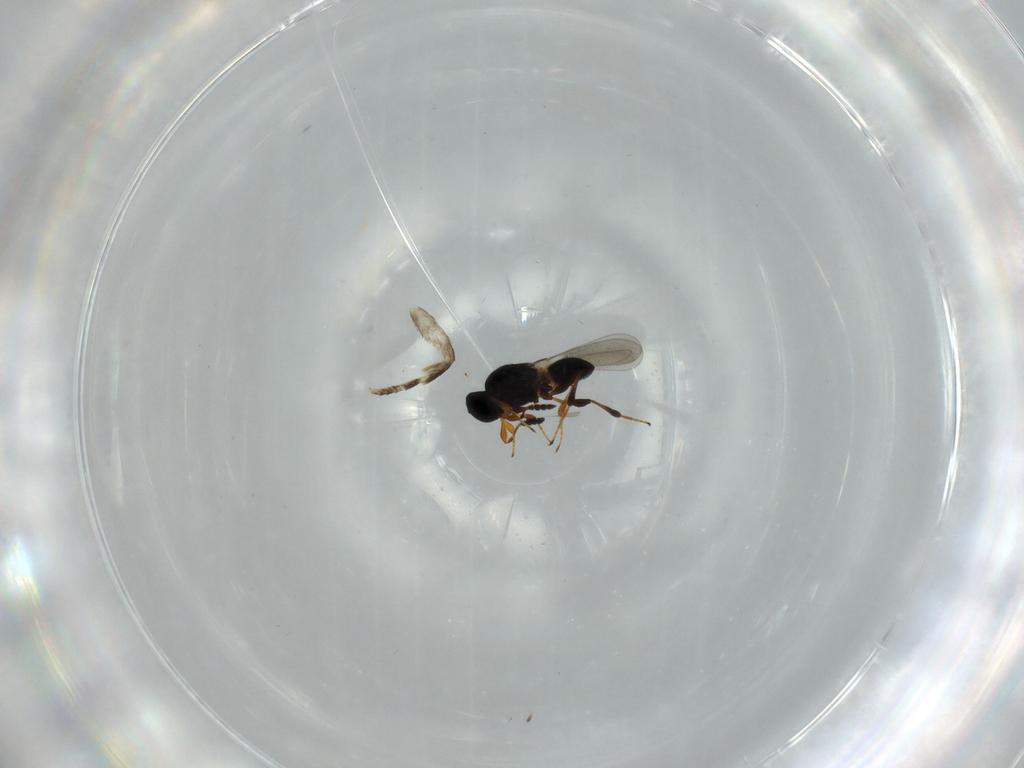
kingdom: Animalia
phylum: Arthropoda
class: Insecta
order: Hymenoptera
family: Platygastridae
